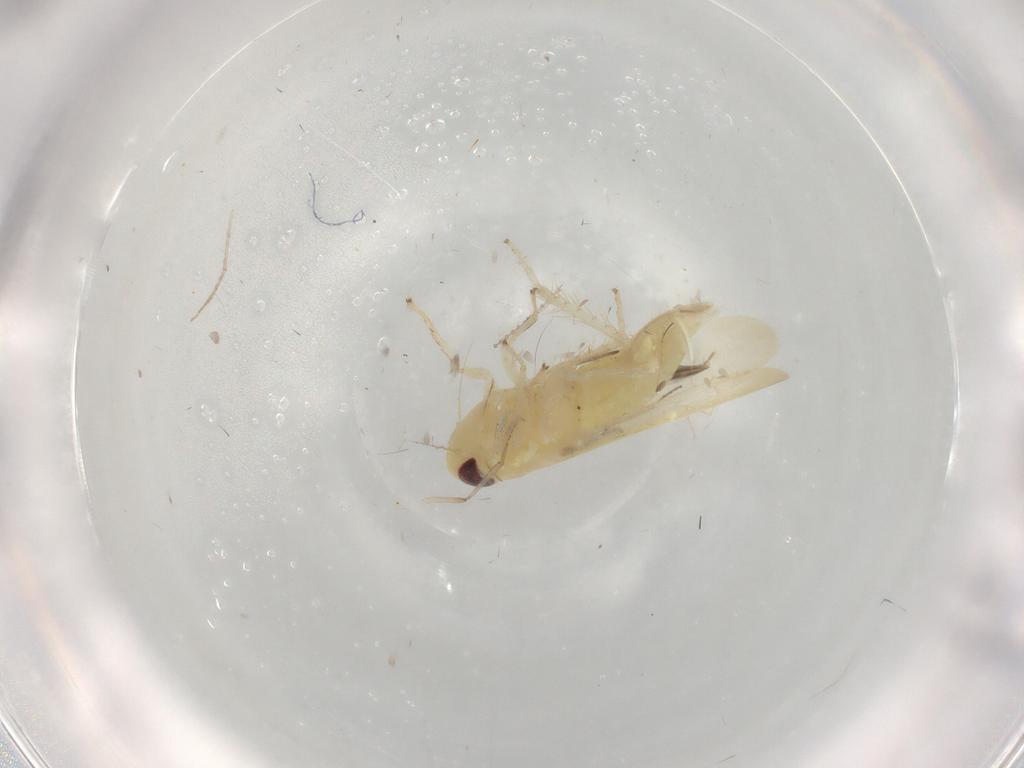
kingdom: Animalia
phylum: Arthropoda
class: Insecta
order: Hemiptera
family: Cicadellidae
